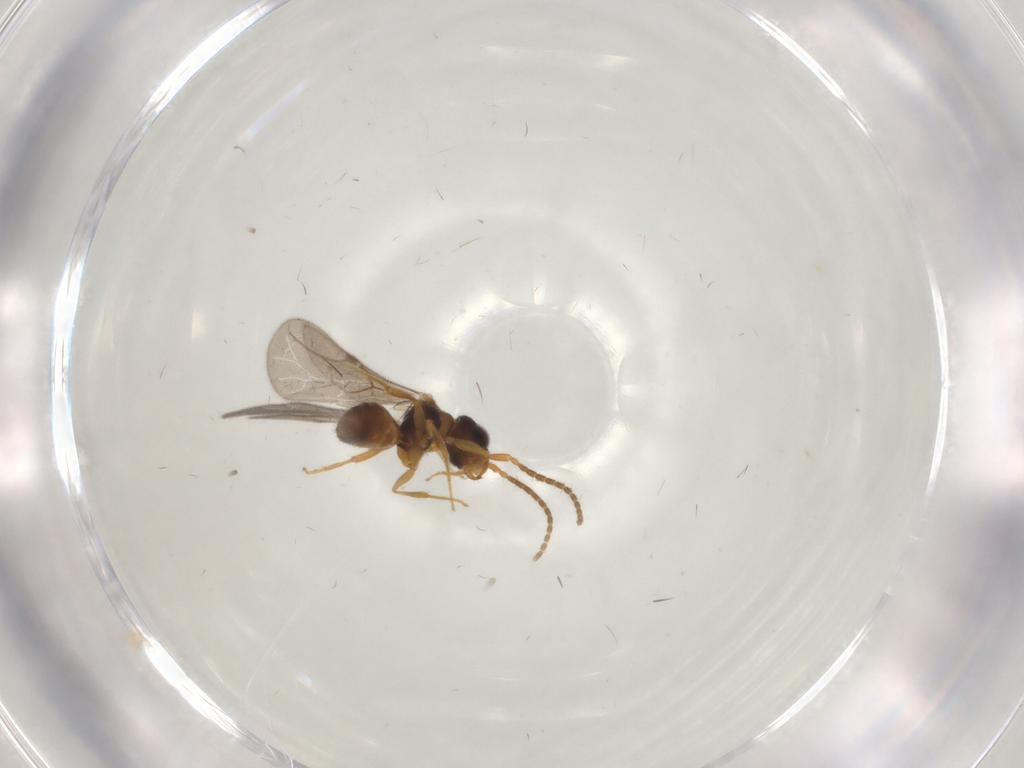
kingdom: Animalia
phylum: Arthropoda
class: Insecta
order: Hymenoptera
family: Bethylidae
